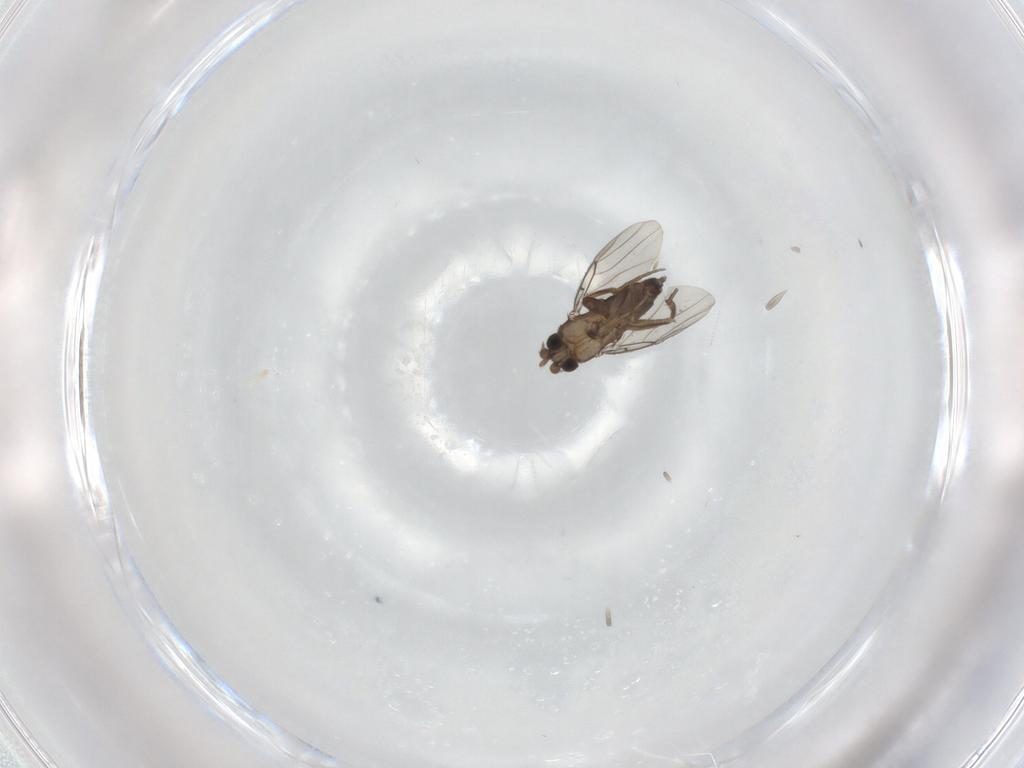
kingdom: Animalia
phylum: Arthropoda
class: Insecta
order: Diptera
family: Phoridae
